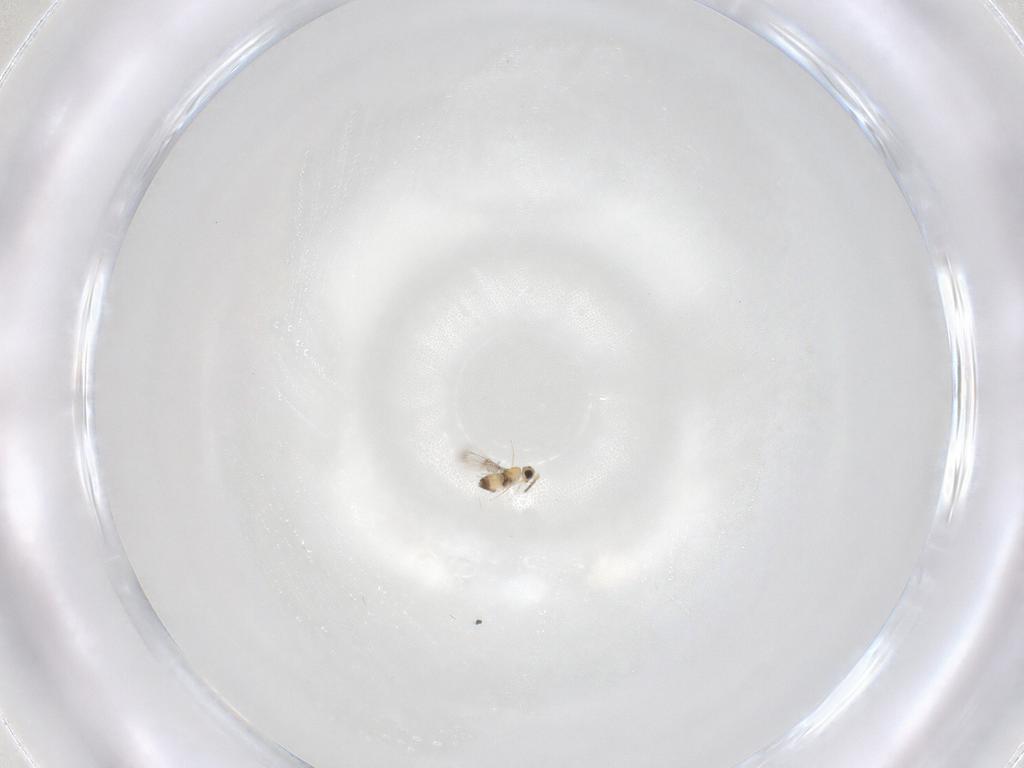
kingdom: Animalia
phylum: Arthropoda
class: Insecta
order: Hymenoptera
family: Trichogrammatidae
